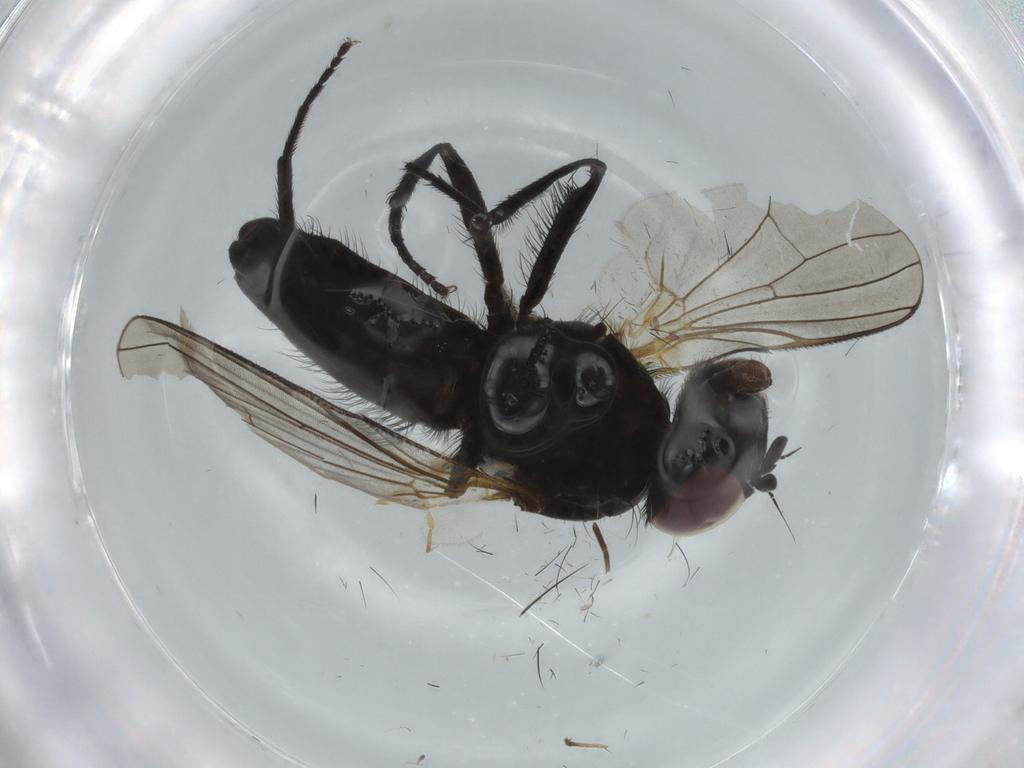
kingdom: Animalia
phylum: Arthropoda
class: Insecta
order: Diptera
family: Fannia
